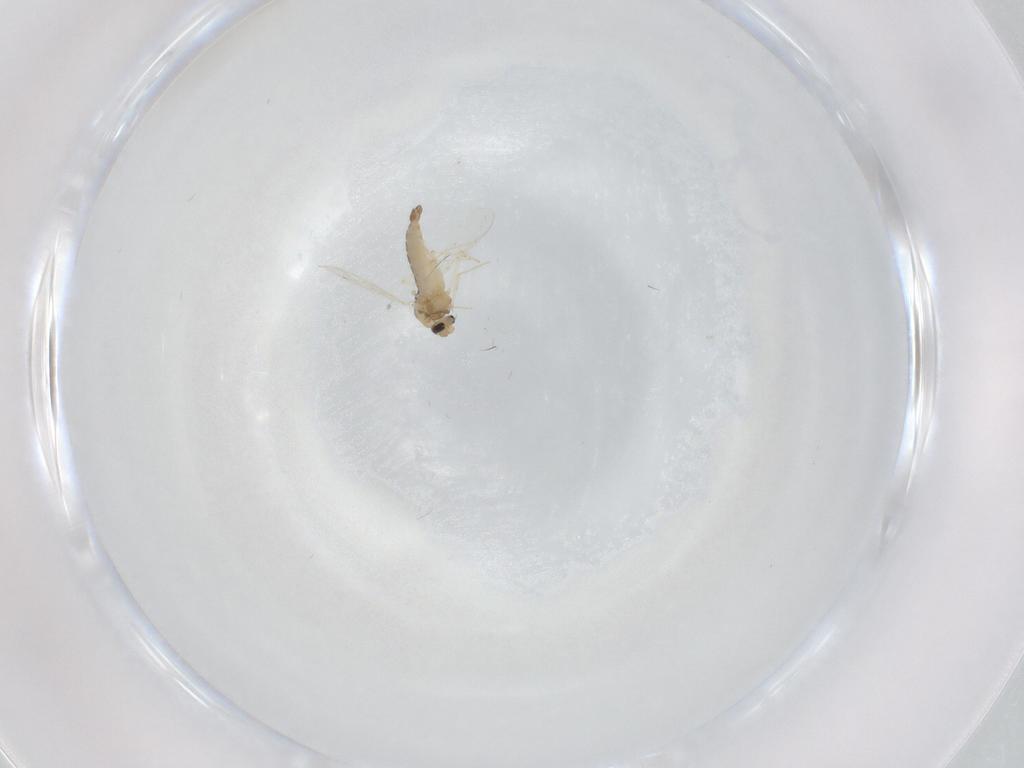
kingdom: Animalia
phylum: Arthropoda
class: Insecta
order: Diptera
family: Chironomidae
